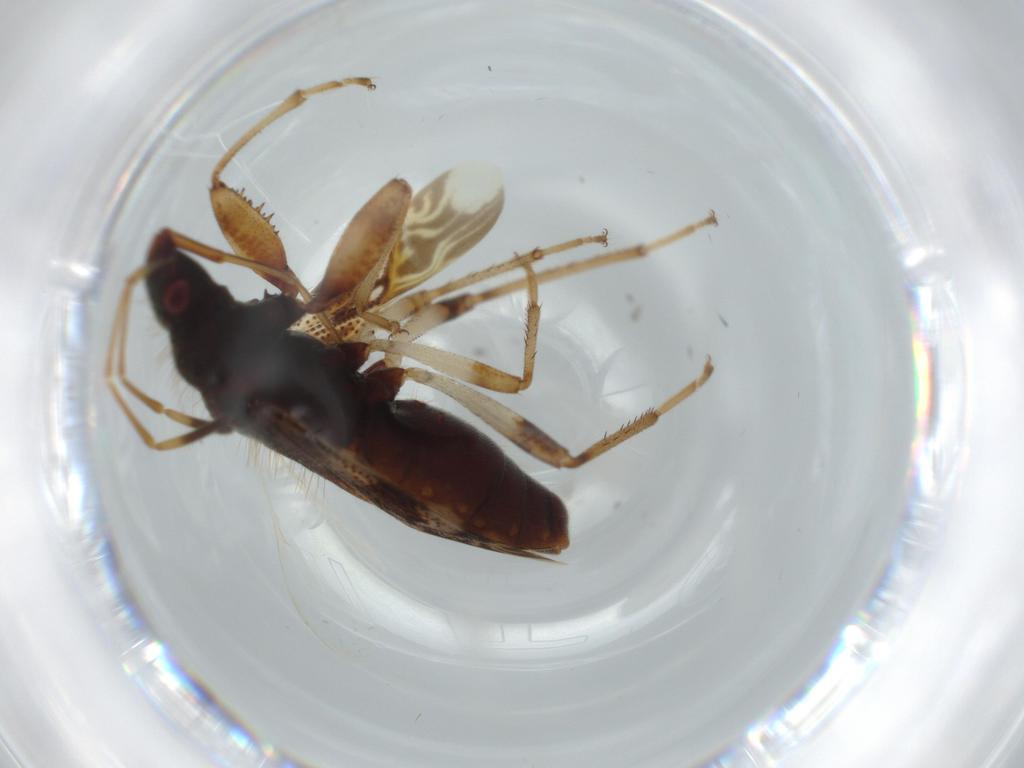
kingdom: Animalia
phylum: Arthropoda
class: Insecta
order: Hemiptera
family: Rhyparochromidae
